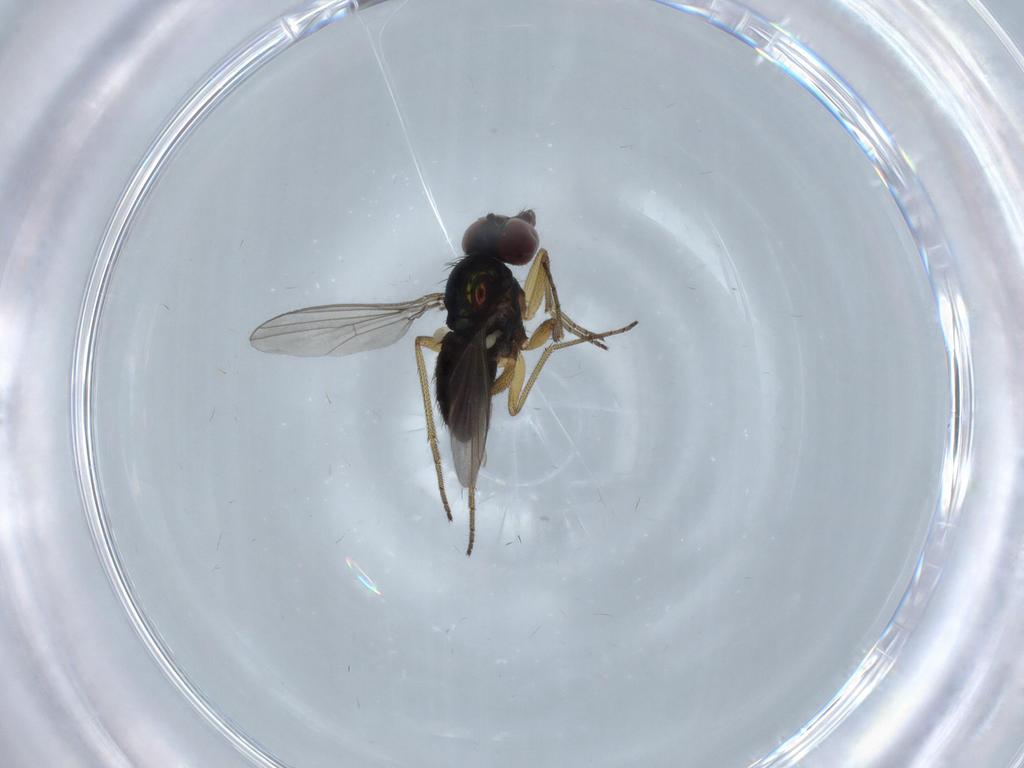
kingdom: Animalia
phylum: Arthropoda
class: Insecta
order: Diptera
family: Dolichopodidae
